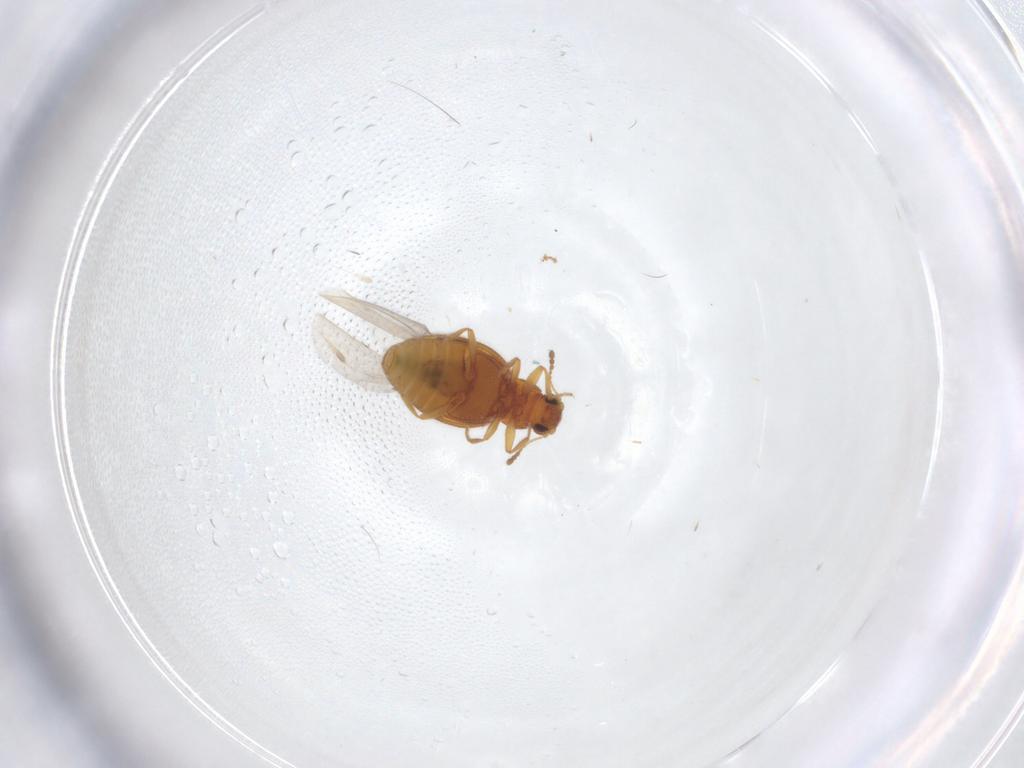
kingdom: Animalia
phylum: Arthropoda
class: Insecta
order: Coleoptera
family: Latridiidae
